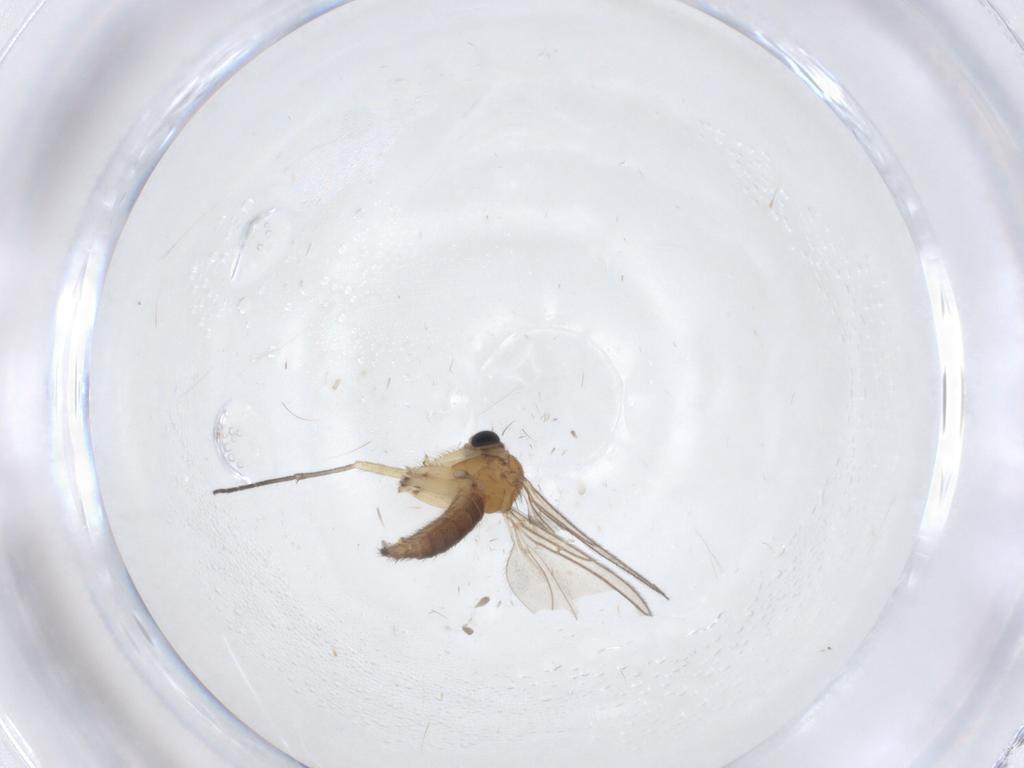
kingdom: Animalia
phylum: Arthropoda
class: Insecta
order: Diptera
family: Sciaridae
